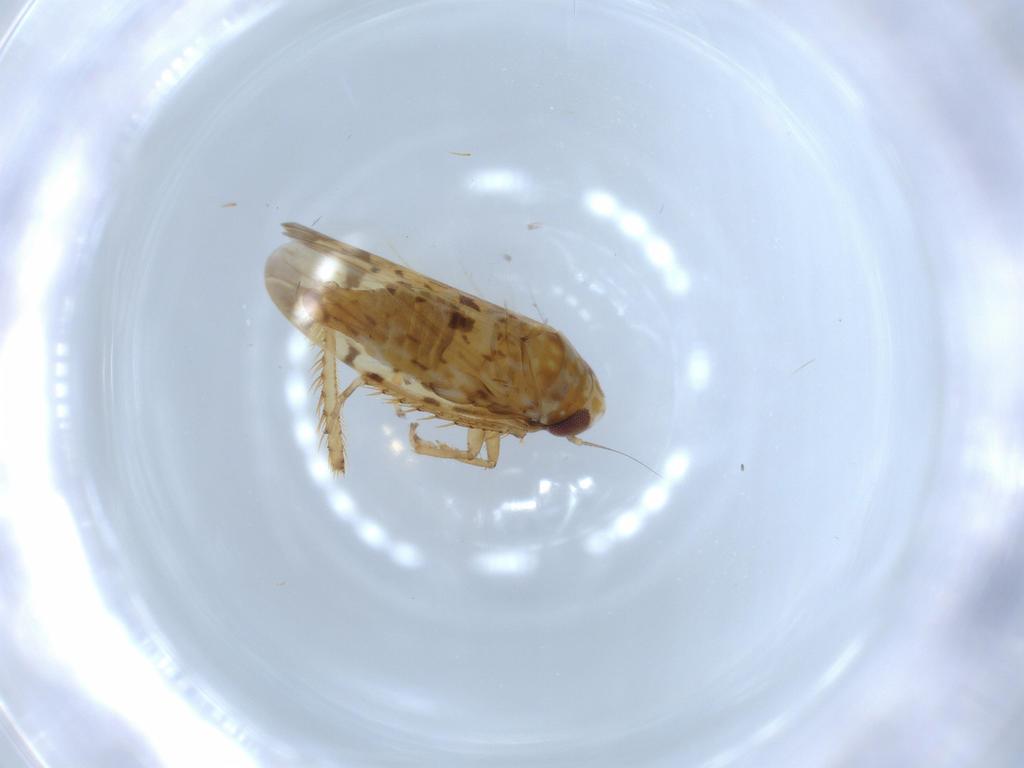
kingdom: Animalia
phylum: Arthropoda
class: Insecta
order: Hemiptera
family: Cicadellidae
